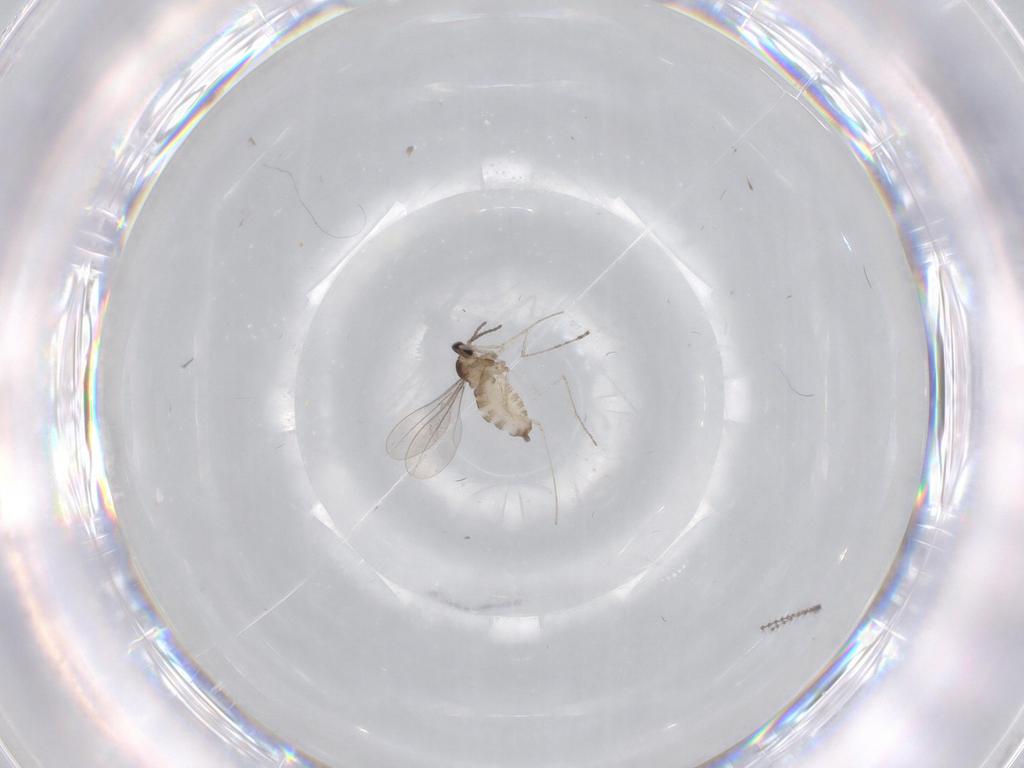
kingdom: Animalia
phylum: Arthropoda
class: Insecta
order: Diptera
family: Cecidomyiidae
